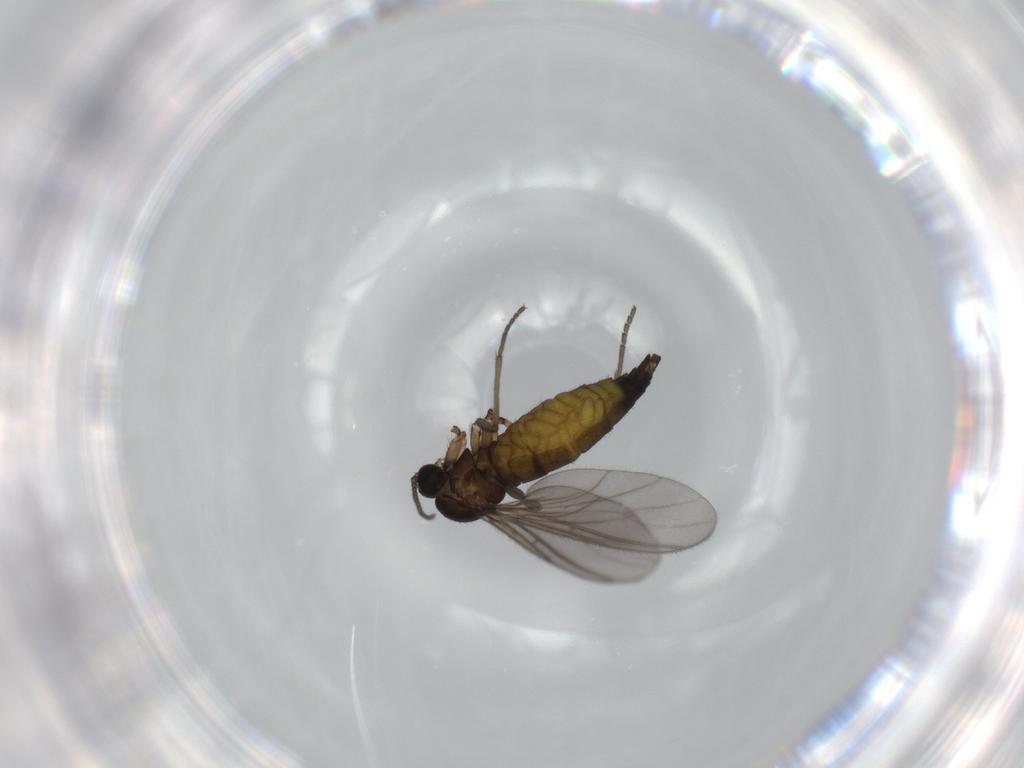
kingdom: Animalia
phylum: Arthropoda
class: Insecta
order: Diptera
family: Sciaridae
